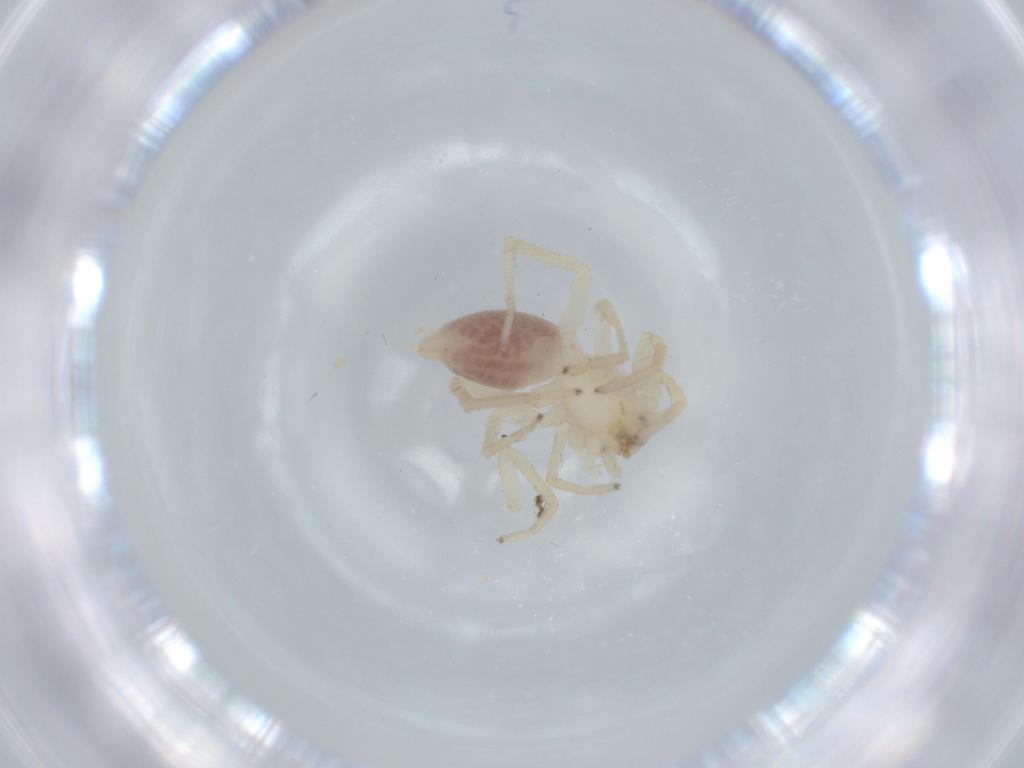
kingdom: Animalia
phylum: Arthropoda
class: Arachnida
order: Araneae
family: Clubionidae
